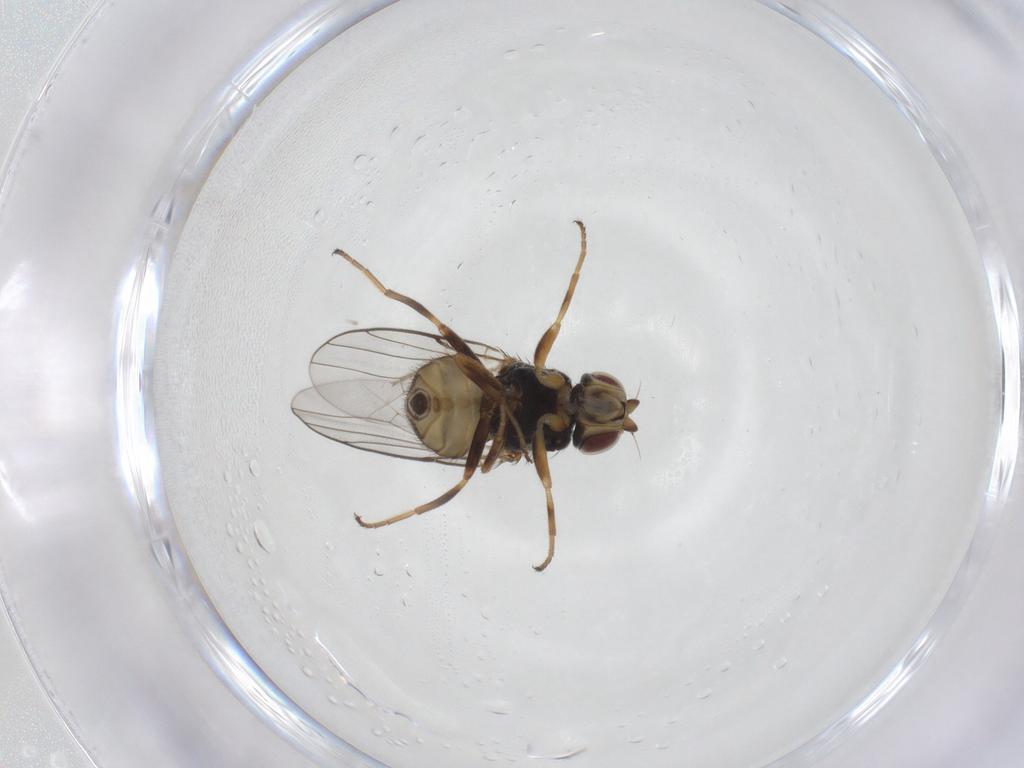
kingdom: Animalia
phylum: Arthropoda
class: Insecta
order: Diptera
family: Chloropidae
